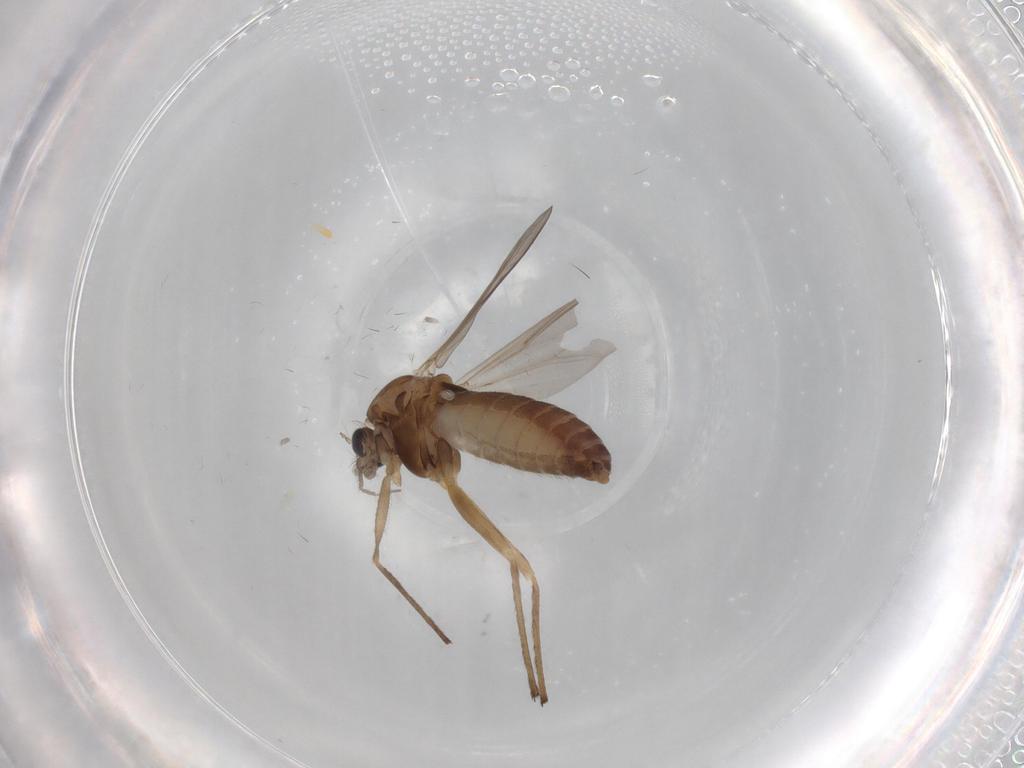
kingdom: Animalia
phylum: Arthropoda
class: Insecta
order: Diptera
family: Chironomidae
